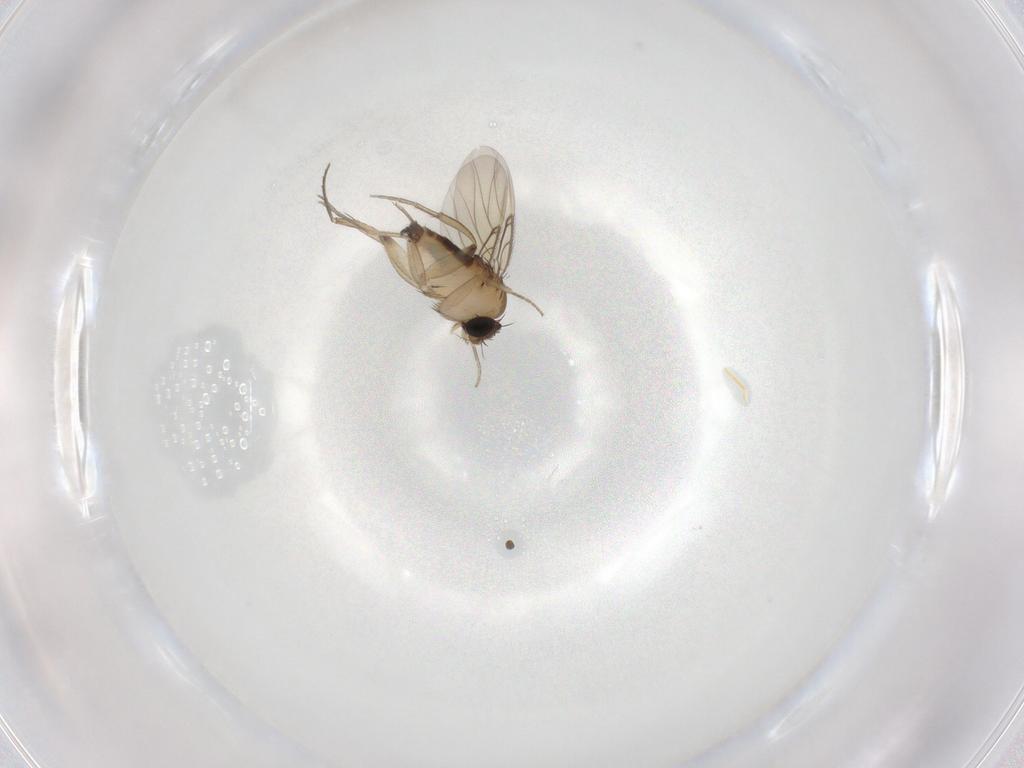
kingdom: Animalia
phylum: Arthropoda
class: Insecta
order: Diptera
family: Phoridae
